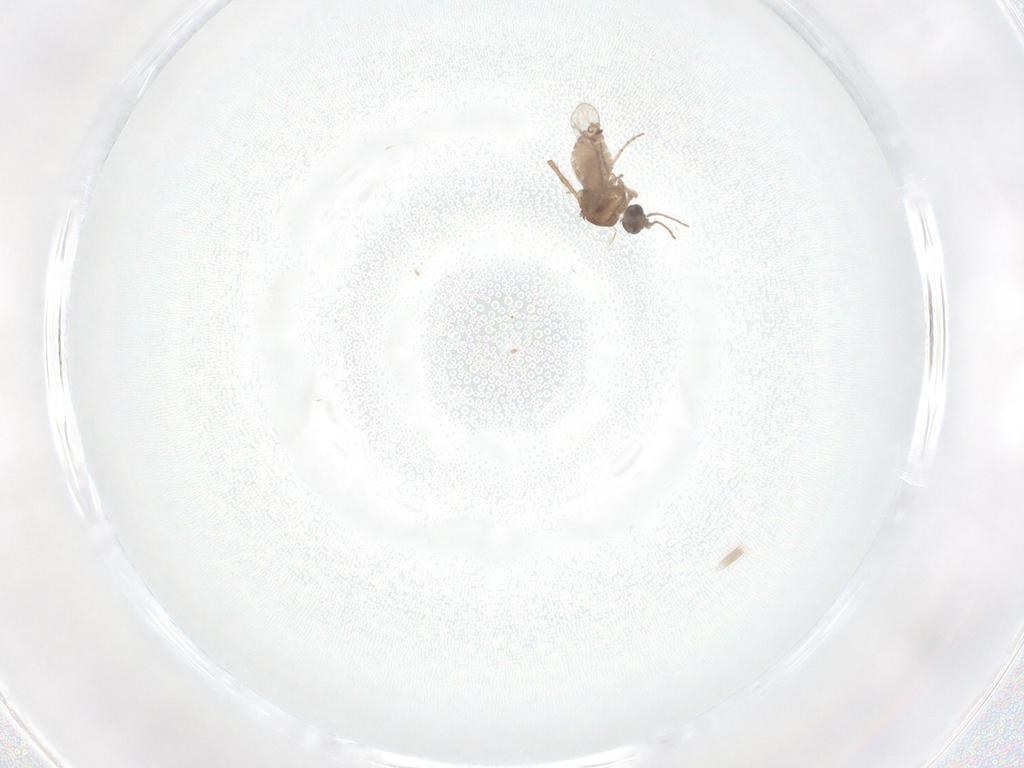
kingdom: Animalia
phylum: Arthropoda
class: Insecta
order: Diptera
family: Chironomidae
